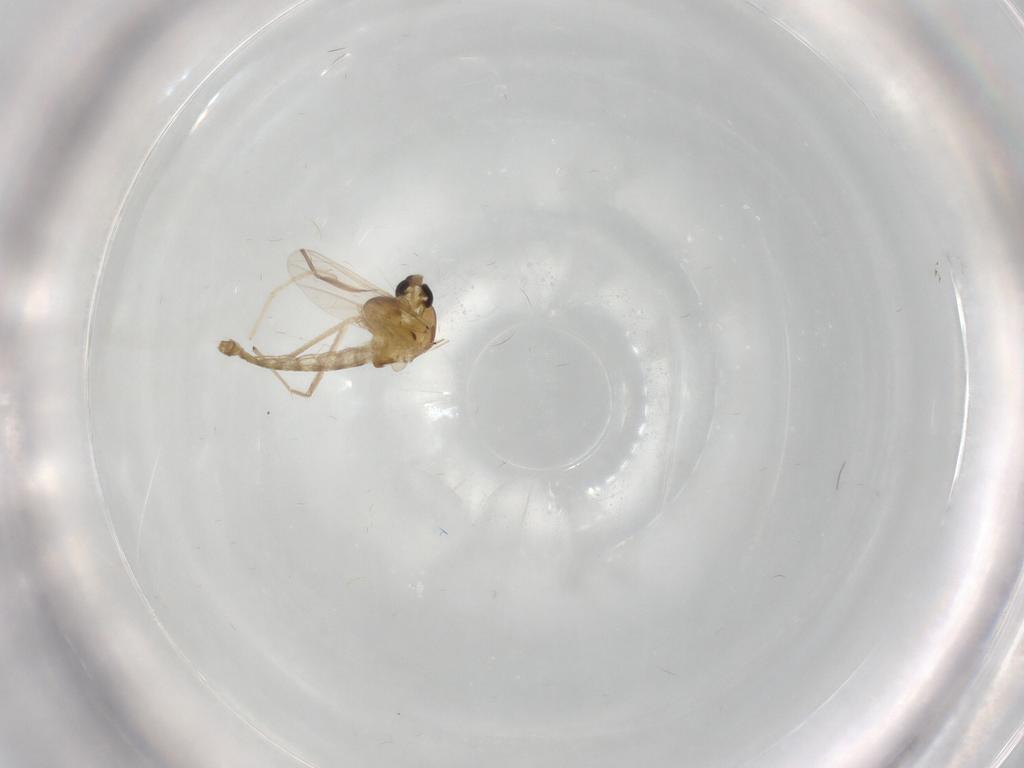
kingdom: Animalia
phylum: Arthropoda
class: Insecta
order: Diptera
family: Chironomidae
